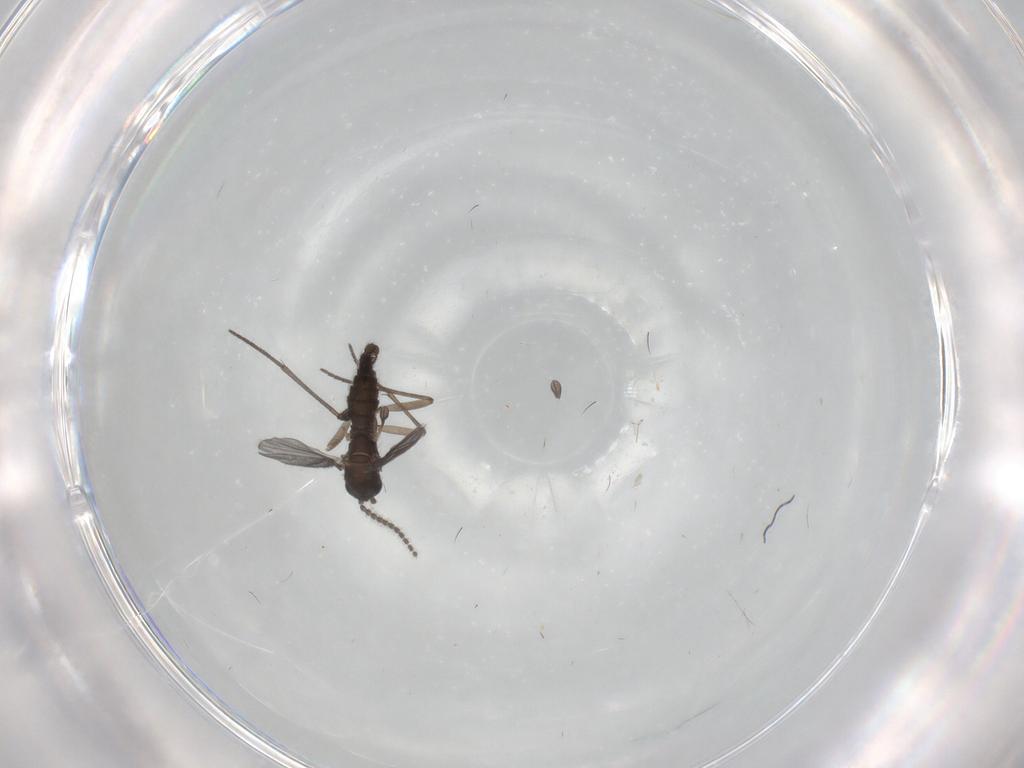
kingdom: Animalia
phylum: Arthropoda
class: Insecta
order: Diptera
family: Sciaridae
